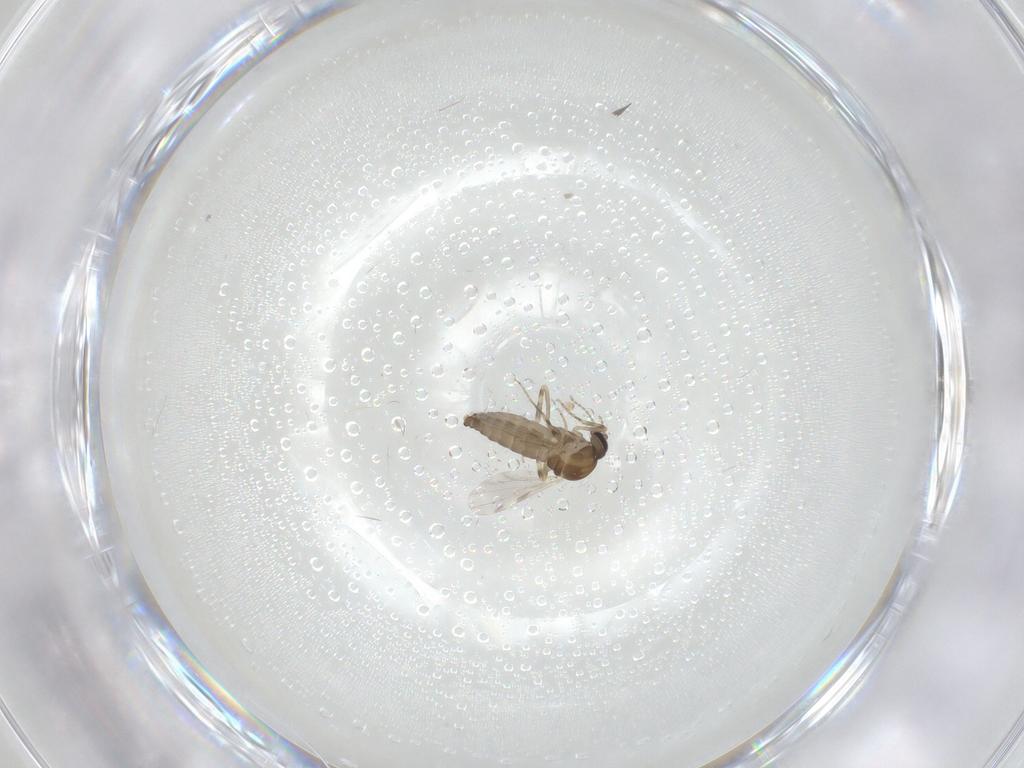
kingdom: Animalia
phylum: Arthropoda
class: Insecta
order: Diptera
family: Ceratopogonidae
